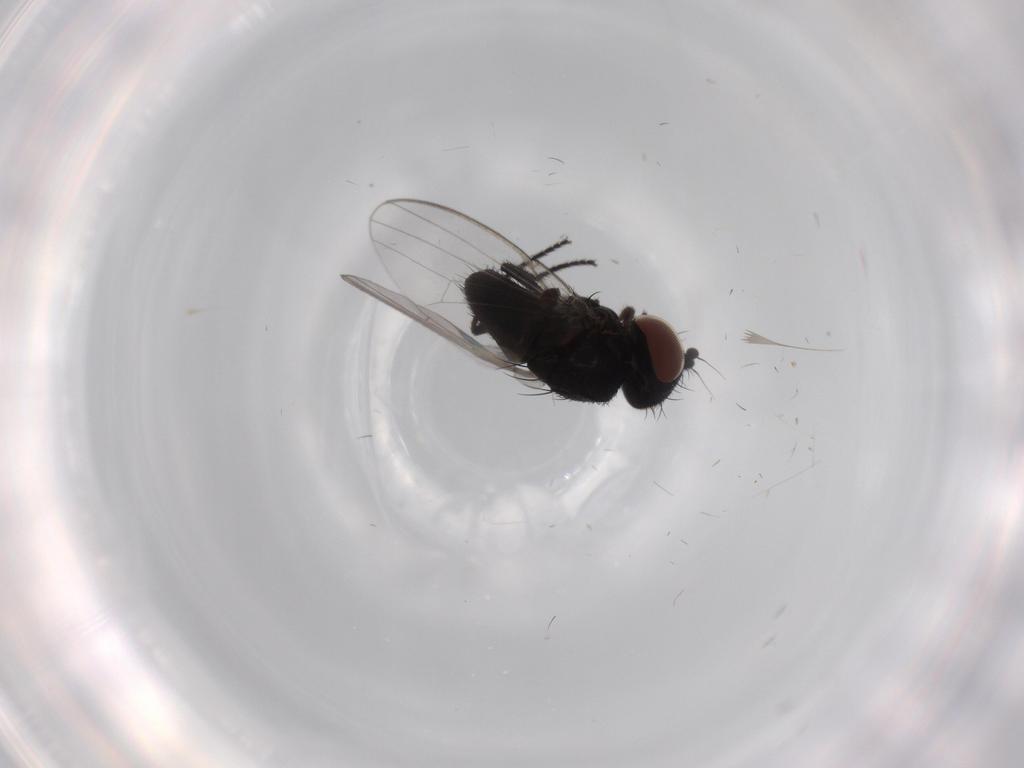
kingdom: Animalia
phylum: Arthropoda
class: Insecta
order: Diptera
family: Milichiidae
